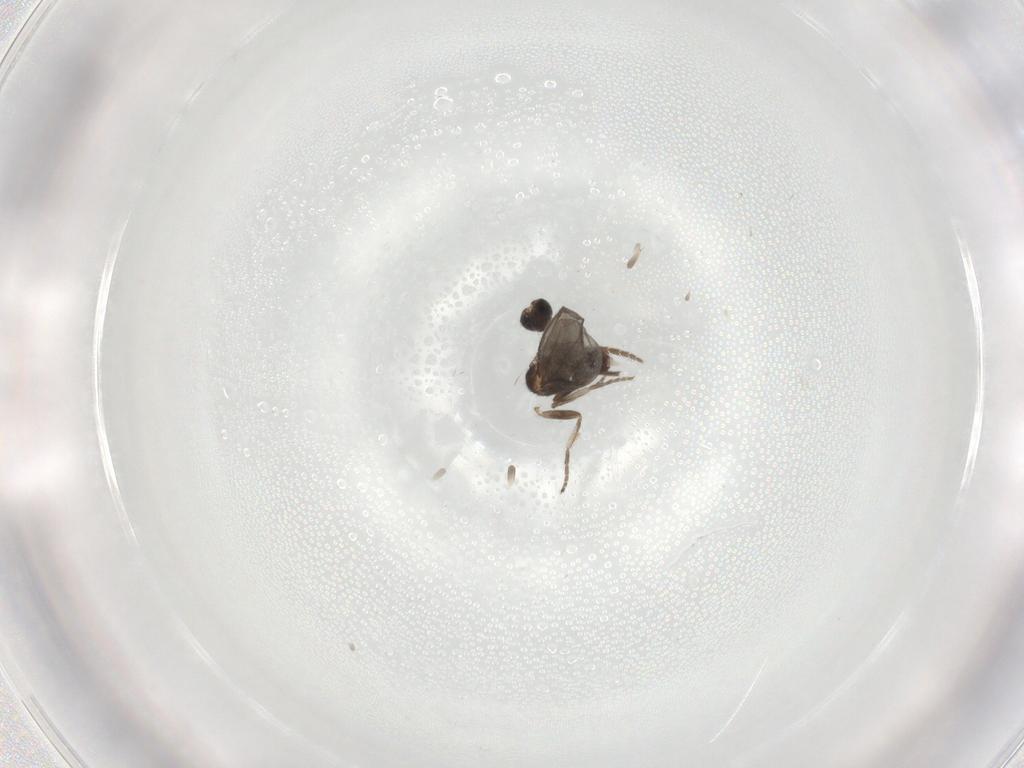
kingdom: Animalia
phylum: Arthropoda
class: Insecta
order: Diptera
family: Phoridae
